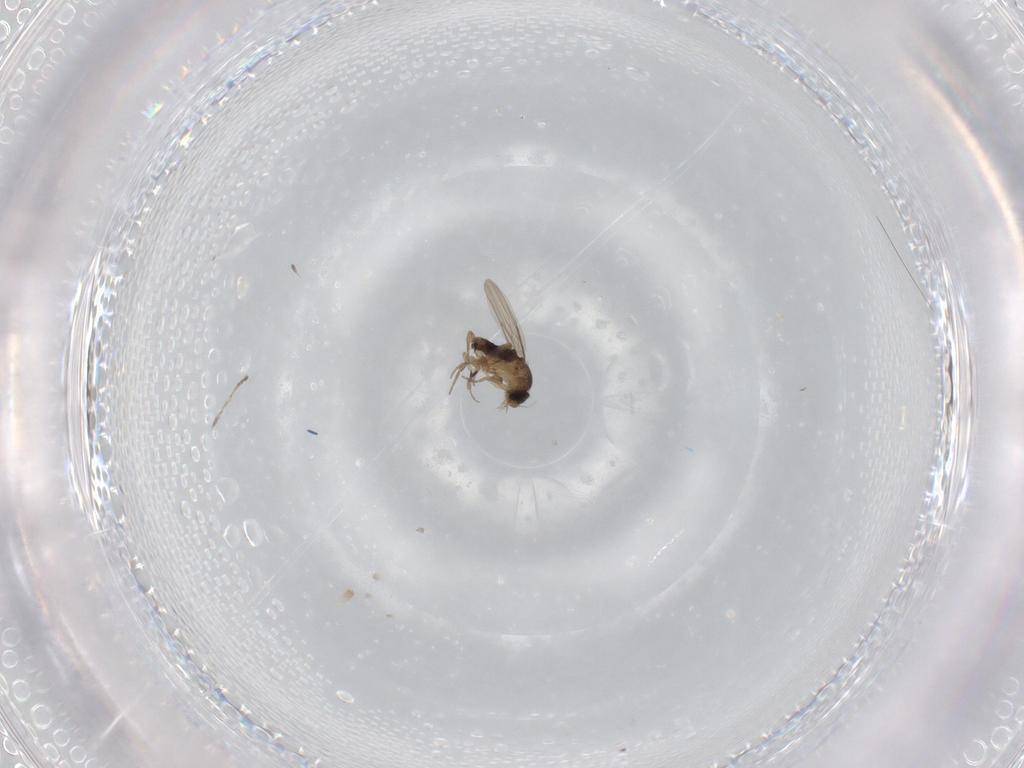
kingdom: Animalia
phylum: Arthropoda
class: Insecta
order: Diptera
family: Cecidomyiidae
